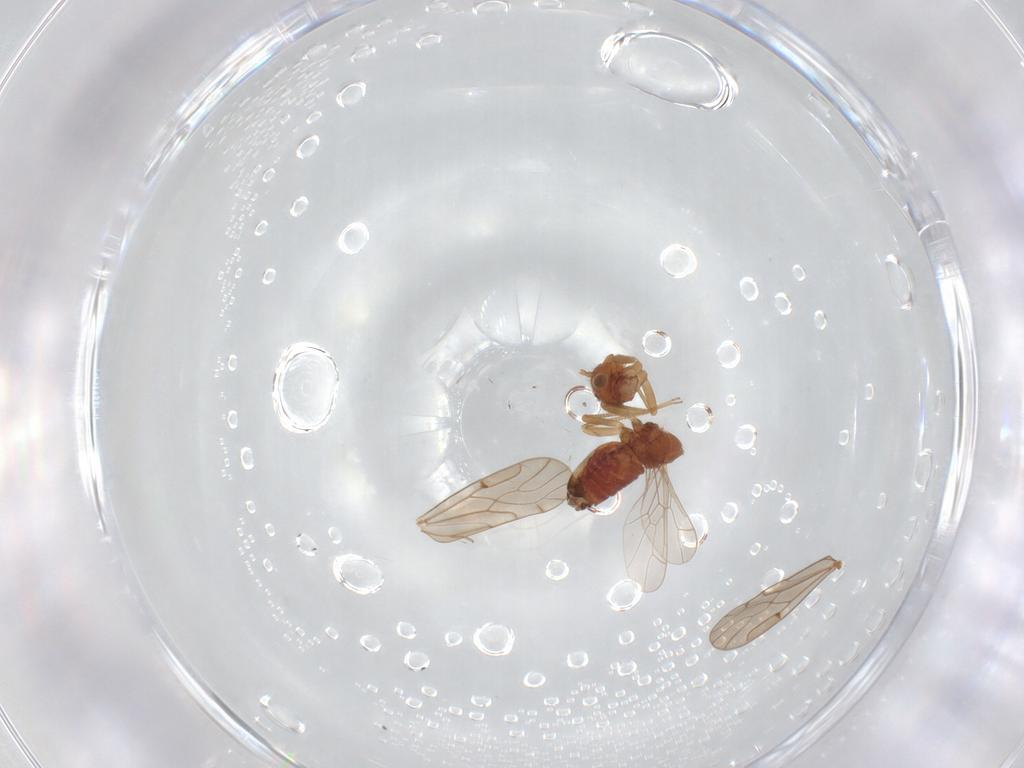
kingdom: Animalia
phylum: Arthropoda
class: Insecta
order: Psocodea
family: Ectopsocidae
